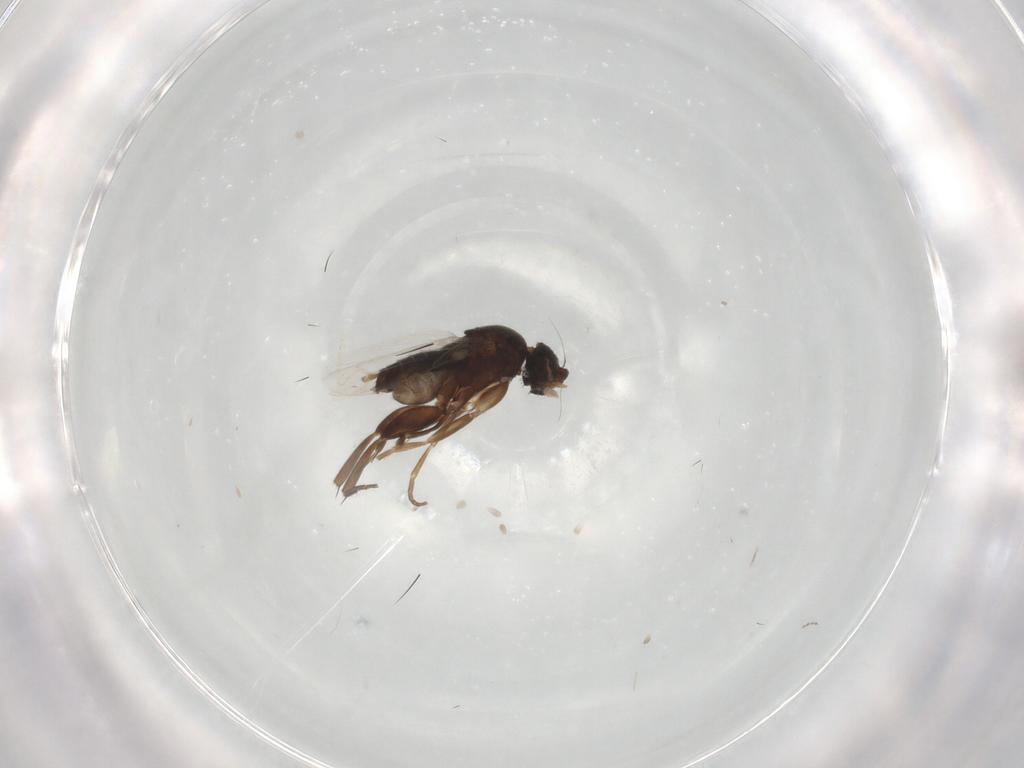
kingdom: Animalia
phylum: Arthropoda
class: Insecta
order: Diptera
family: Phoridae
